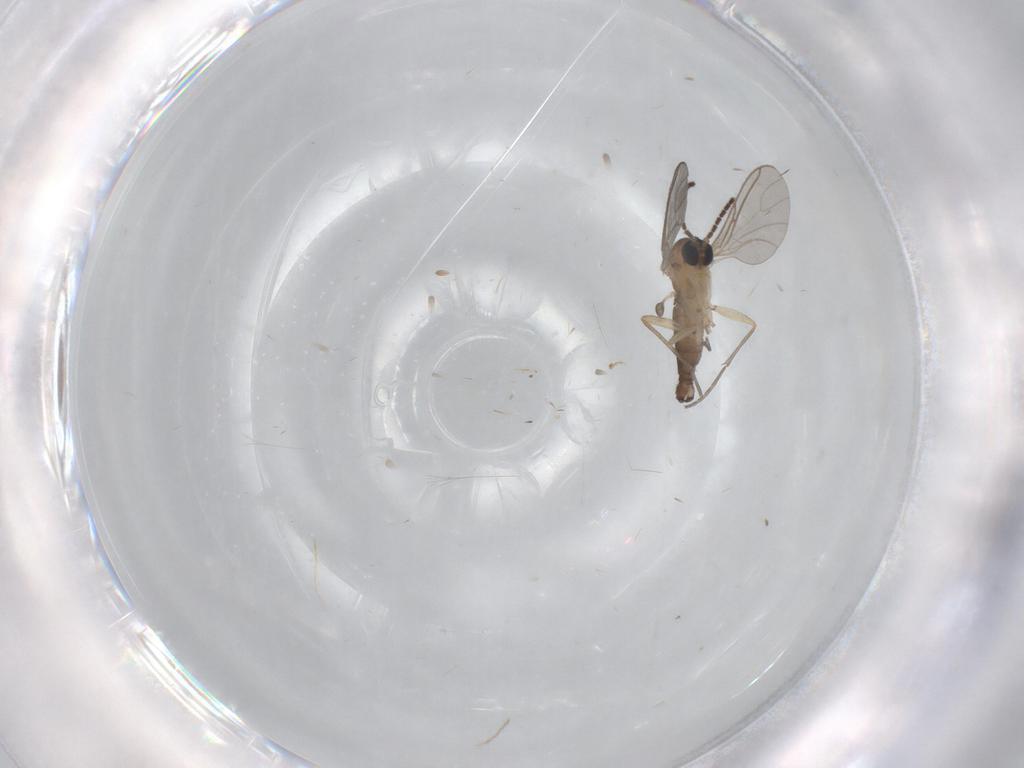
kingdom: Animalia
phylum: Arthropoda
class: Insecta
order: Diptera
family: Sciaridae
